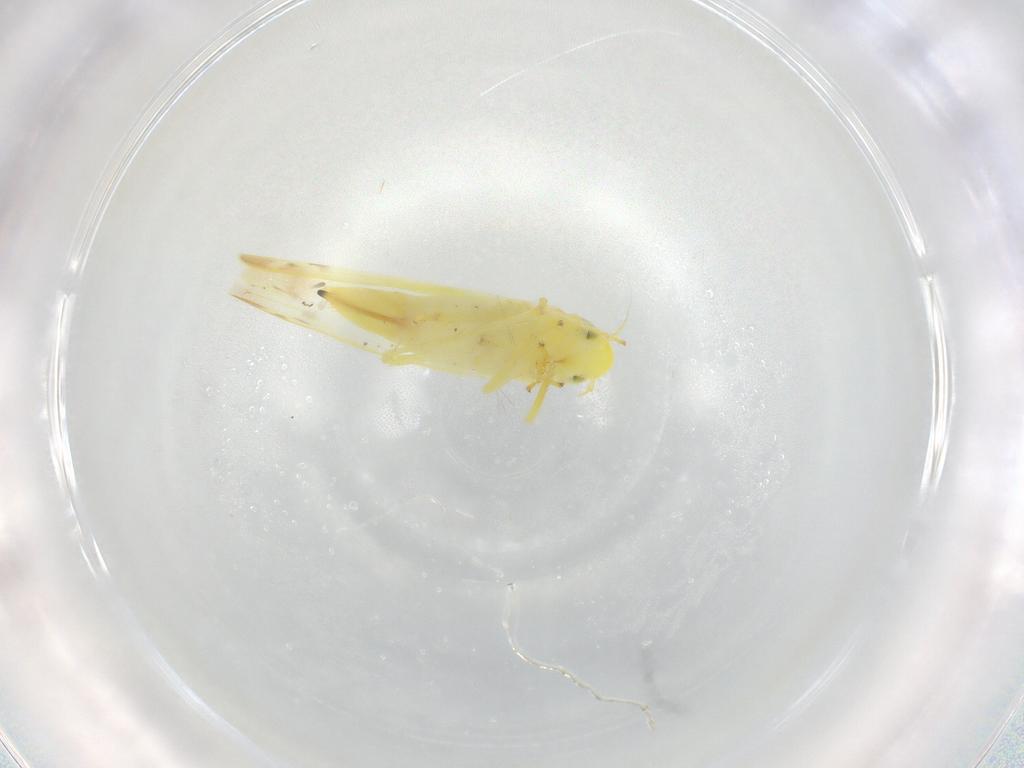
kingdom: Animalia
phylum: Arthropoda
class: Insecta
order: Hemiptera
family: Cicadellidae
